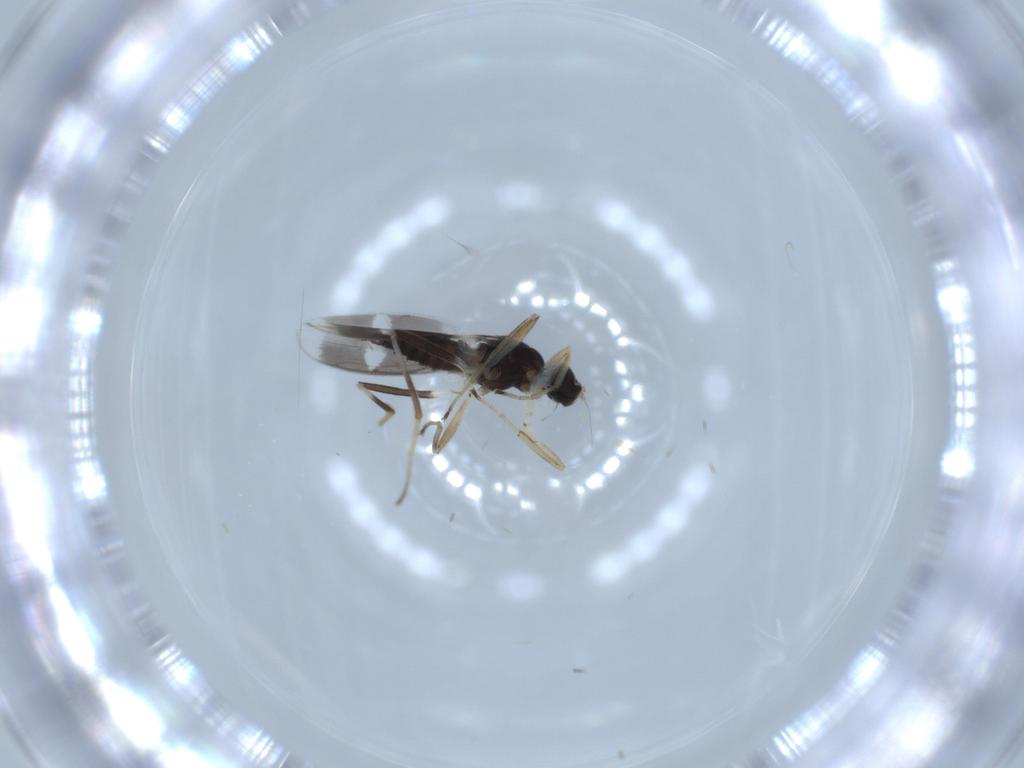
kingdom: Animalia
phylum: Arthropoda
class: Insecta
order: Diptera
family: Hybotidae
